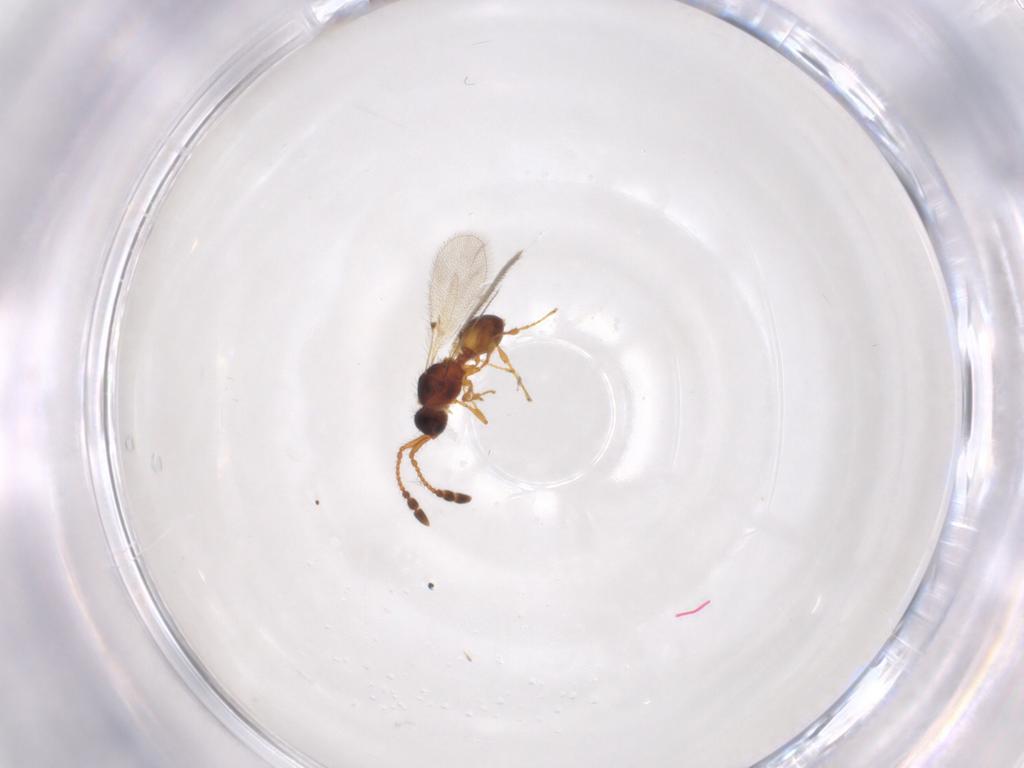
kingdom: Animalia
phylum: Arthropoda
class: Insecta
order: Hymenoptera
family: Diapriidae
